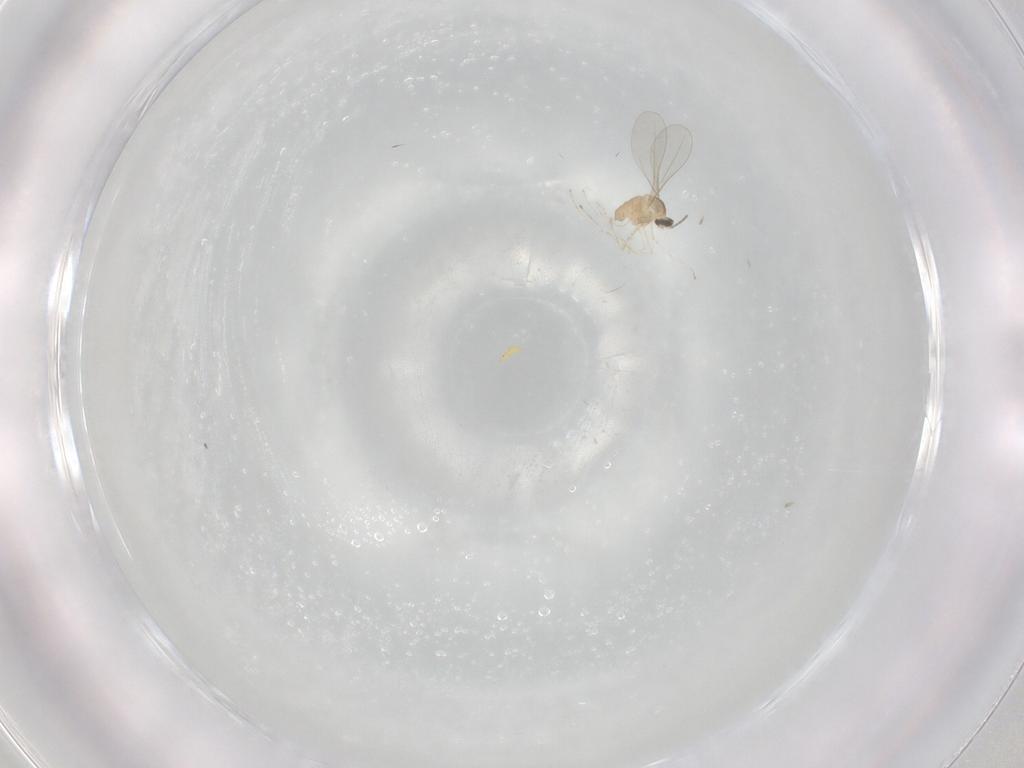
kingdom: Animalia
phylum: Arthropoda
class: Insecta
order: Diptera
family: Cecidomyiidae
